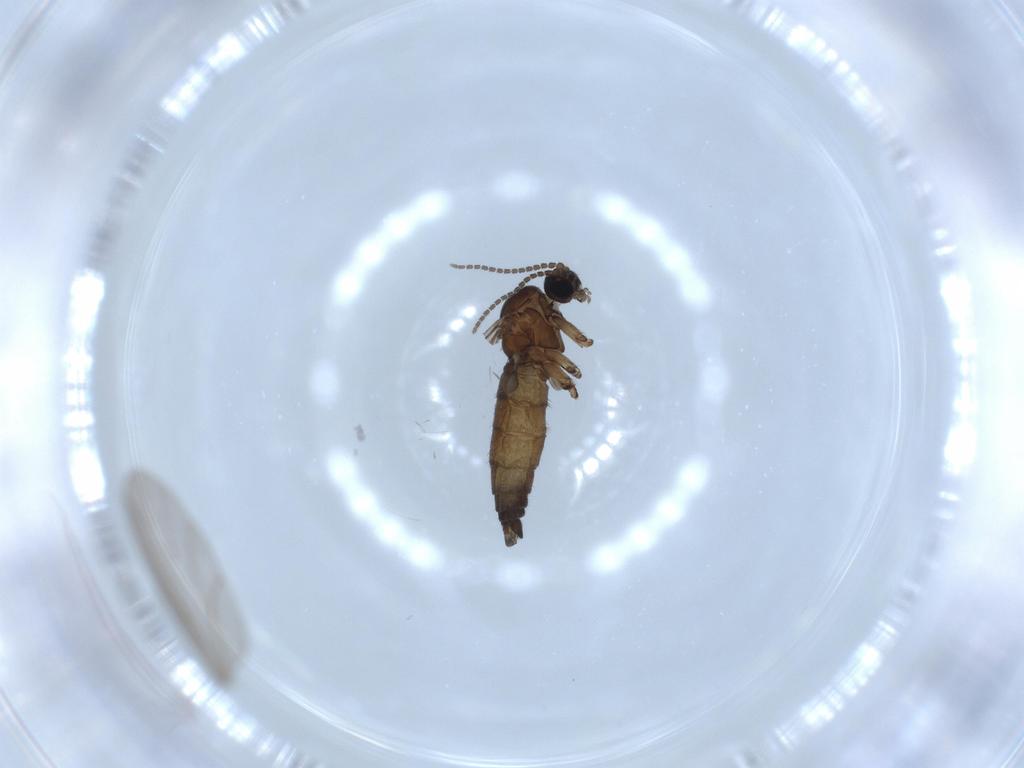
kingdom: Animalia
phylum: Arthropoda
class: Insecta
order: Diptera
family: Sciaridae
